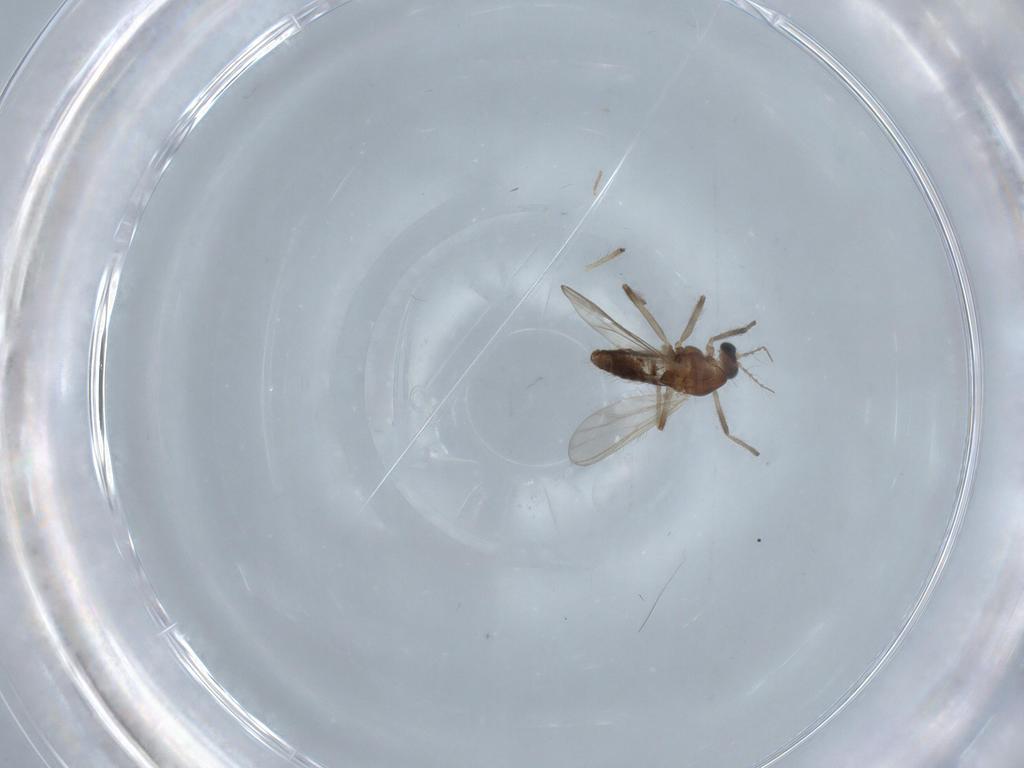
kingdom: Animalia
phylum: Arthropoda
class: Insecta
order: Diptera
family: Chironomidae
